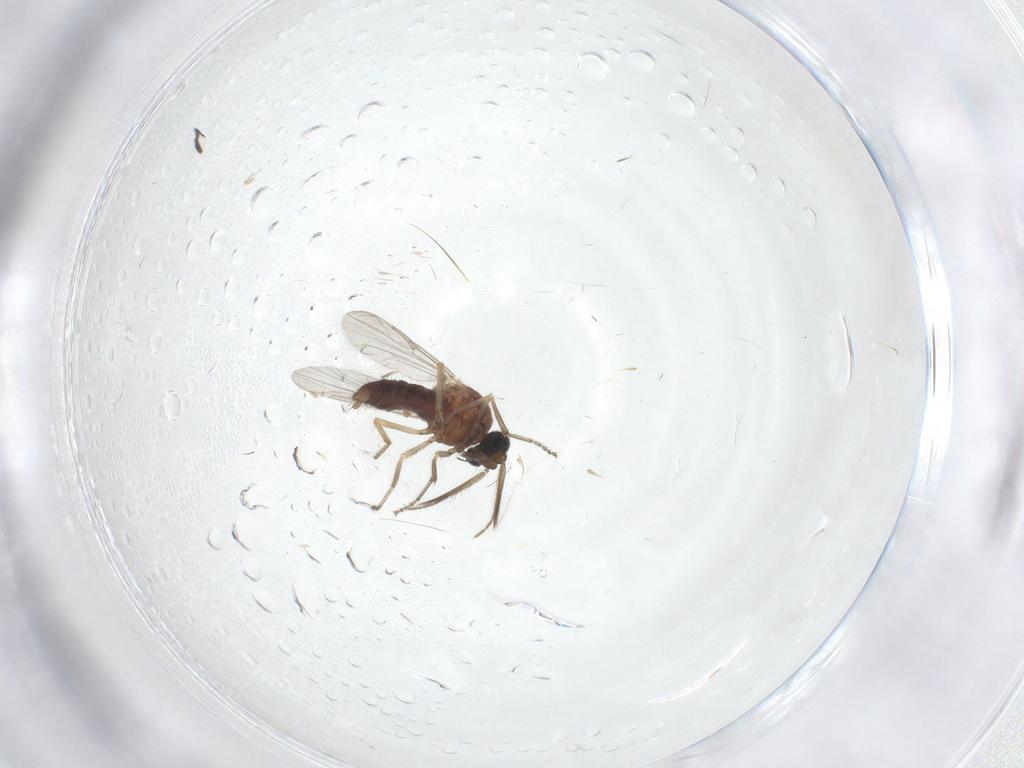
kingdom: Animalia
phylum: Arthropoda
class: Insecta
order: Diptera
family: Ceratopogonidae
